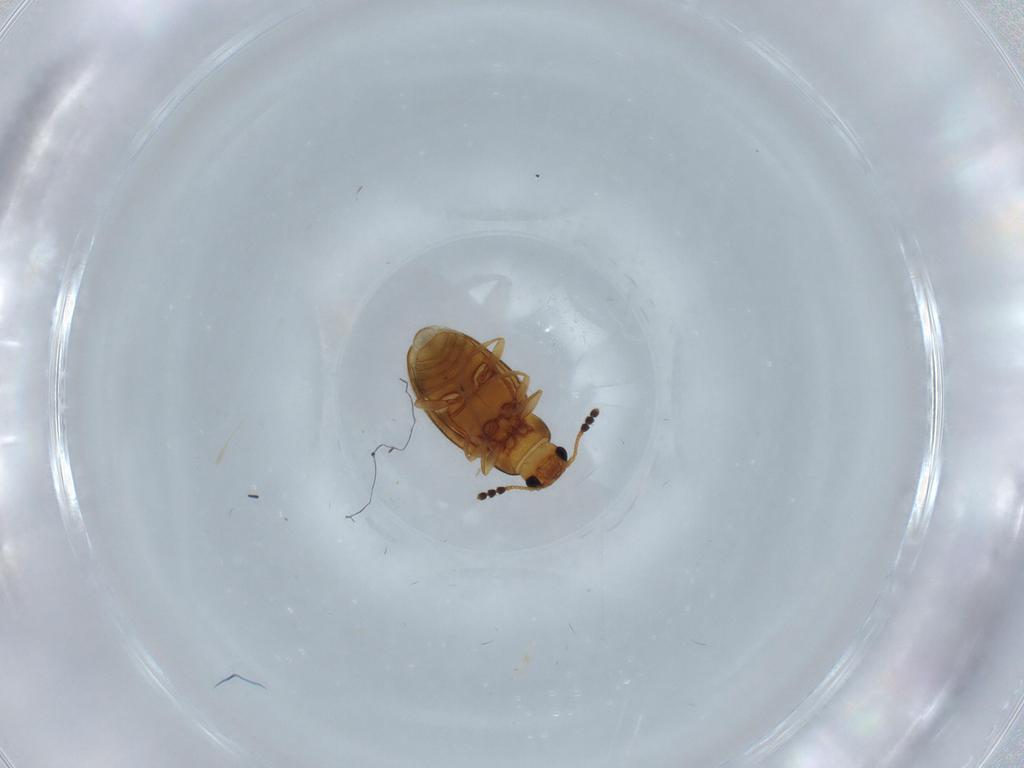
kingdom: Animalia
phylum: Arthropoda
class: Insecta
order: Coleoptera
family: Erotylidae
